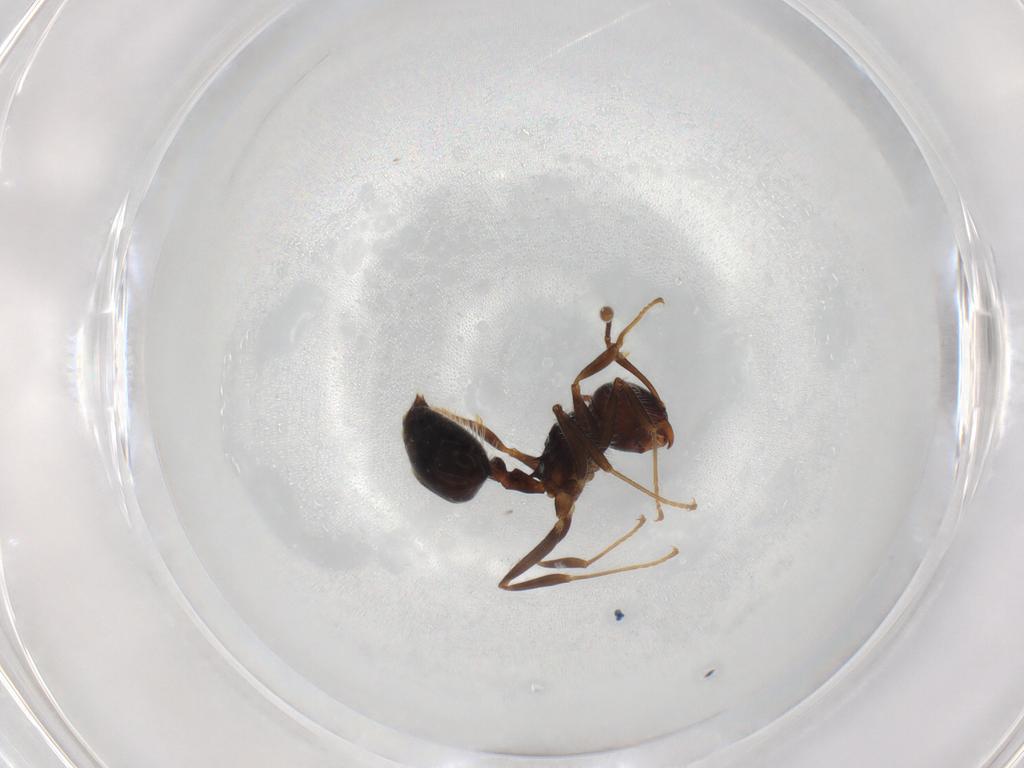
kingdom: Animalia
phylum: Arthropoda
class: Insecta
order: Hymenoptera
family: Formicidae
